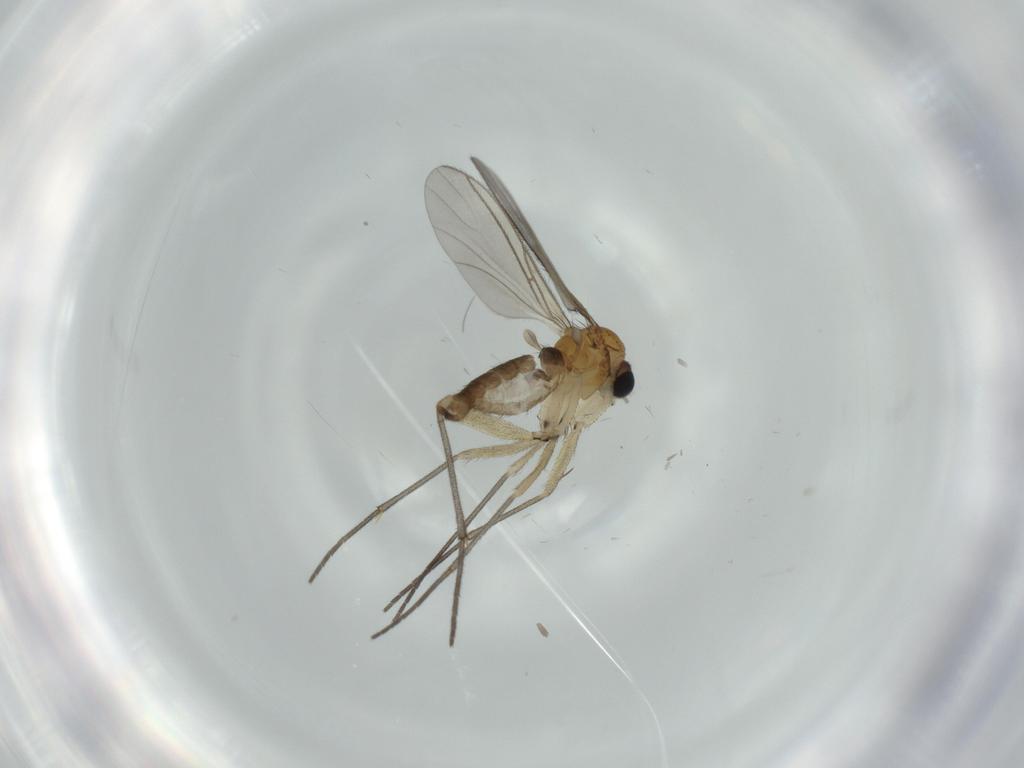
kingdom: Animalia
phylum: Arthropoda
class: Insecta
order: Diptera
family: Sciaridae
